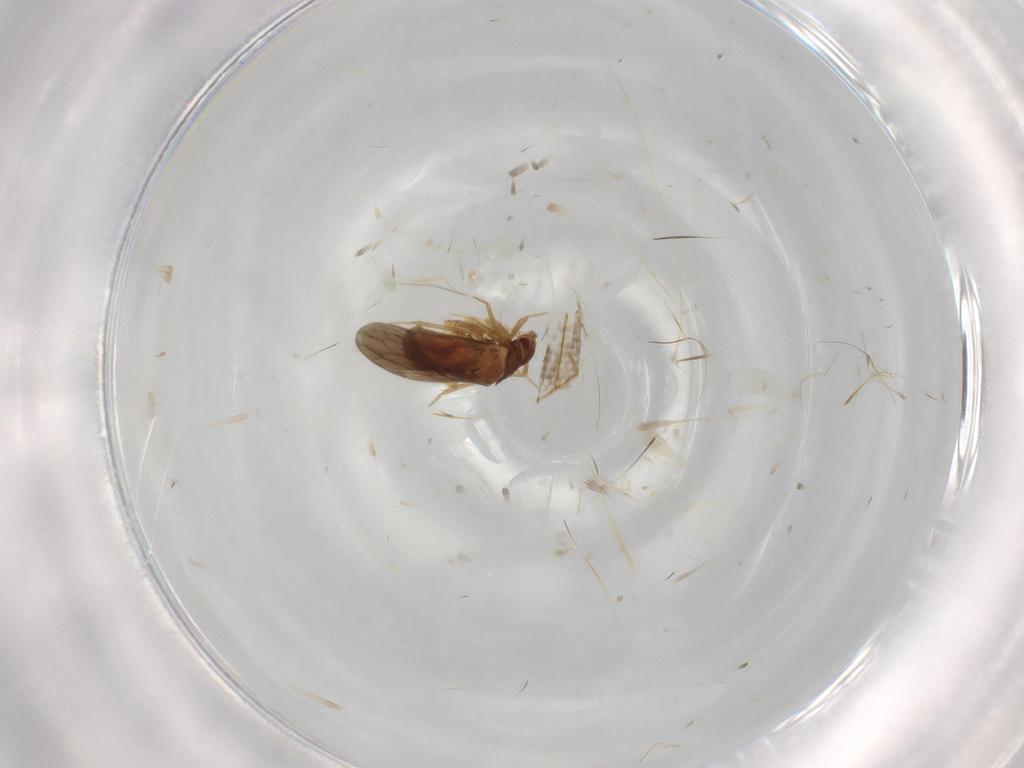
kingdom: Animalia
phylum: Arthropoda
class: Insecta
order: Hemiptera
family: Ceratocombidae
